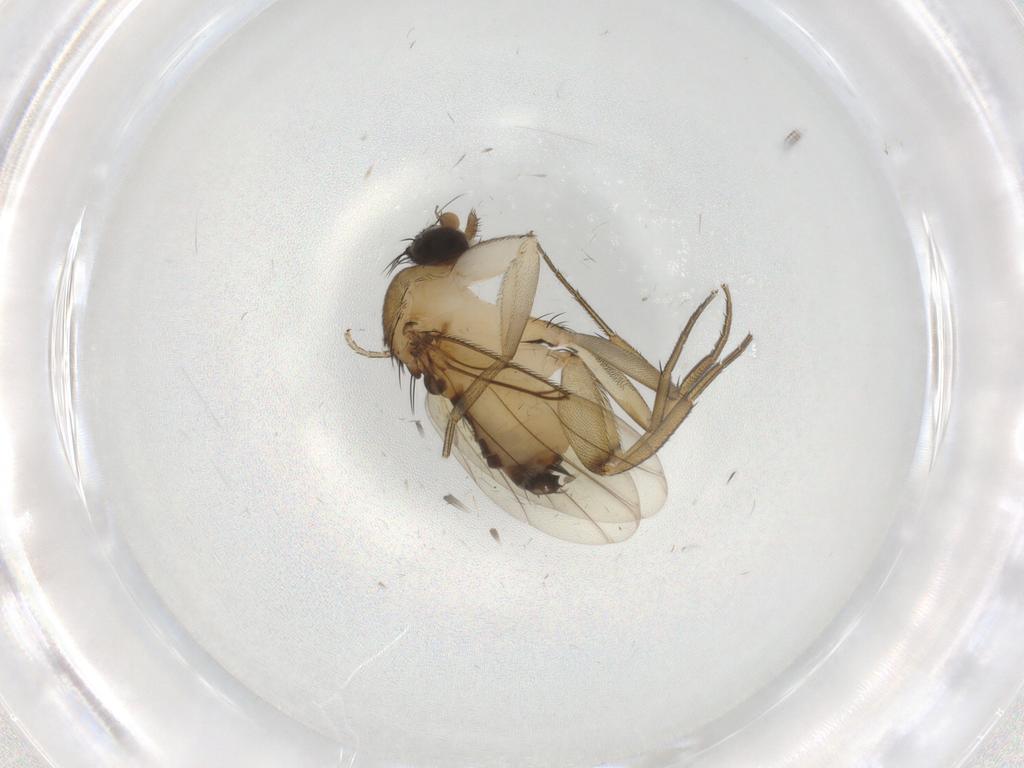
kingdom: Animalia
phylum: Arthropoda
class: Insecta
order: Diptera
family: Phoridae
